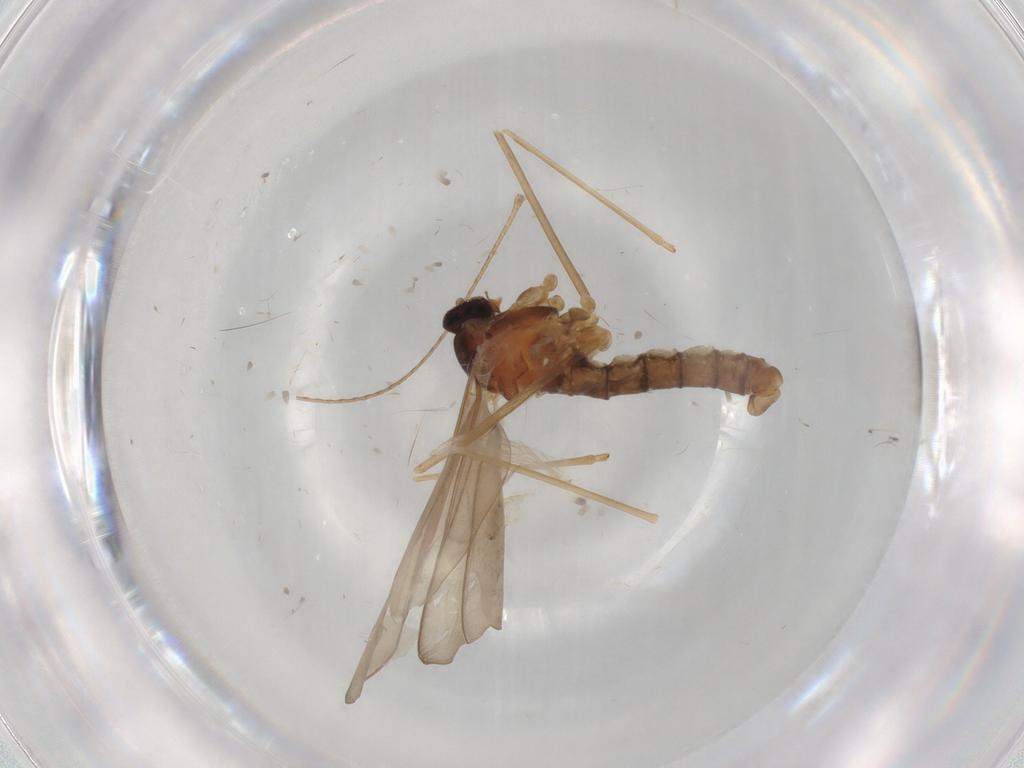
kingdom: Animalia
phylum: Arthropoda
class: Insecta
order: Diptera
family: Cecidomyiidae
